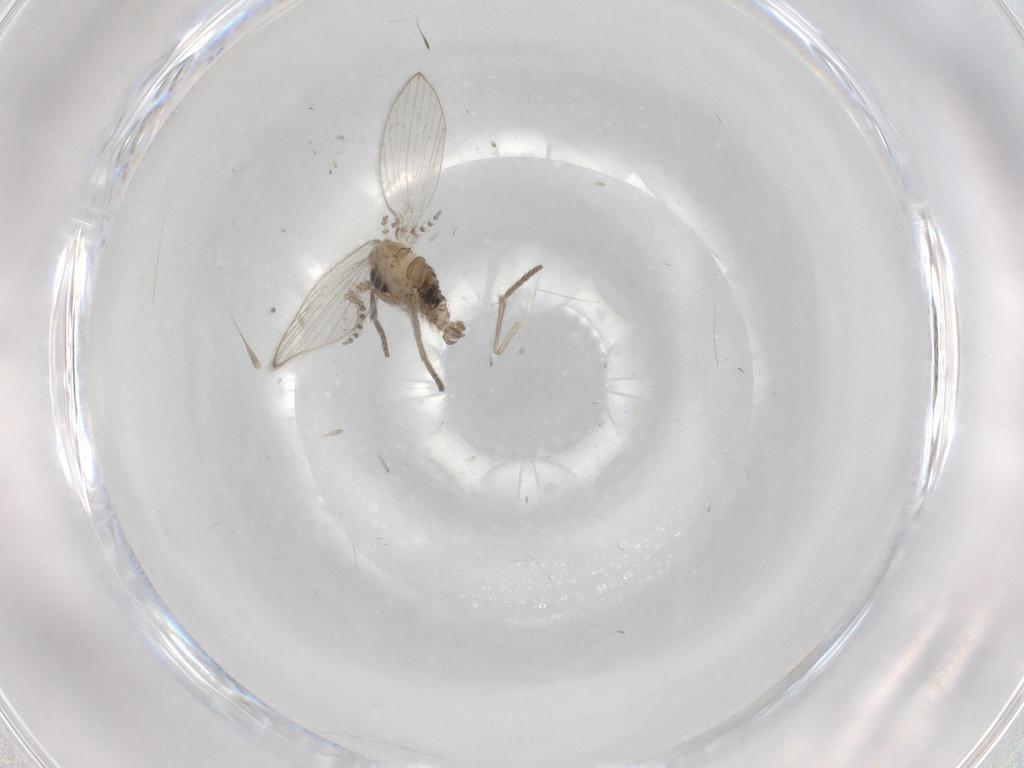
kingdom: Animalia
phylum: Arthropoda
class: Insecta
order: Diptera
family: Psychodidae
